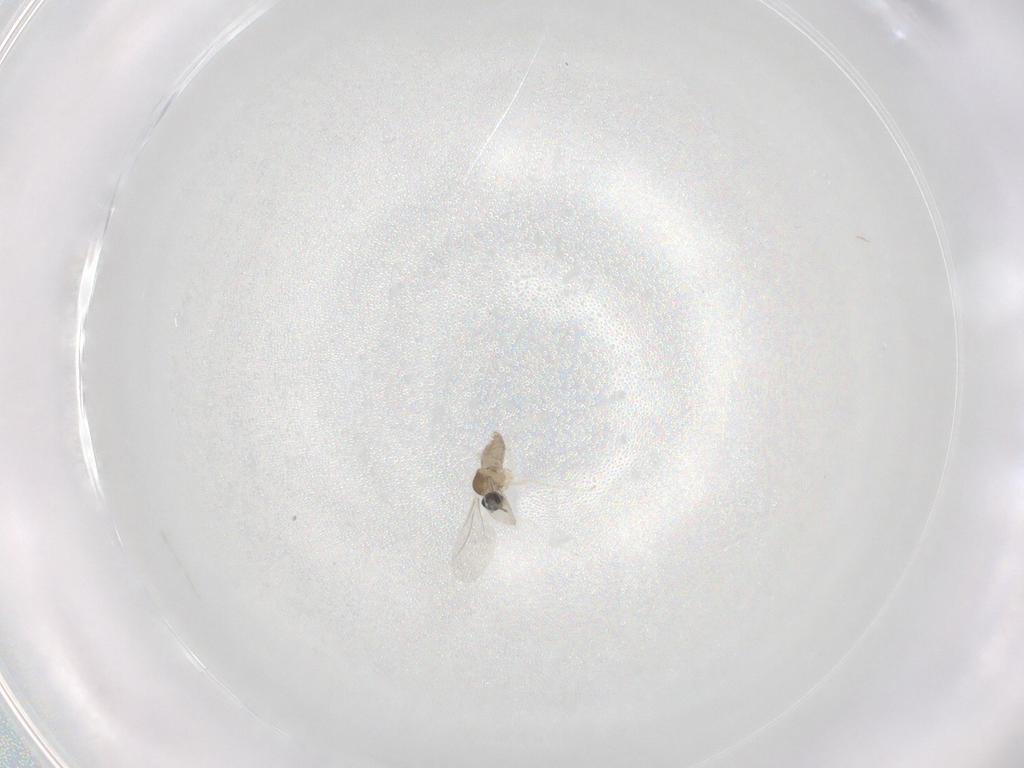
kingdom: Animalia
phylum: Arthropoda
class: Insecta
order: Diptera
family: Cecidomyiidae
